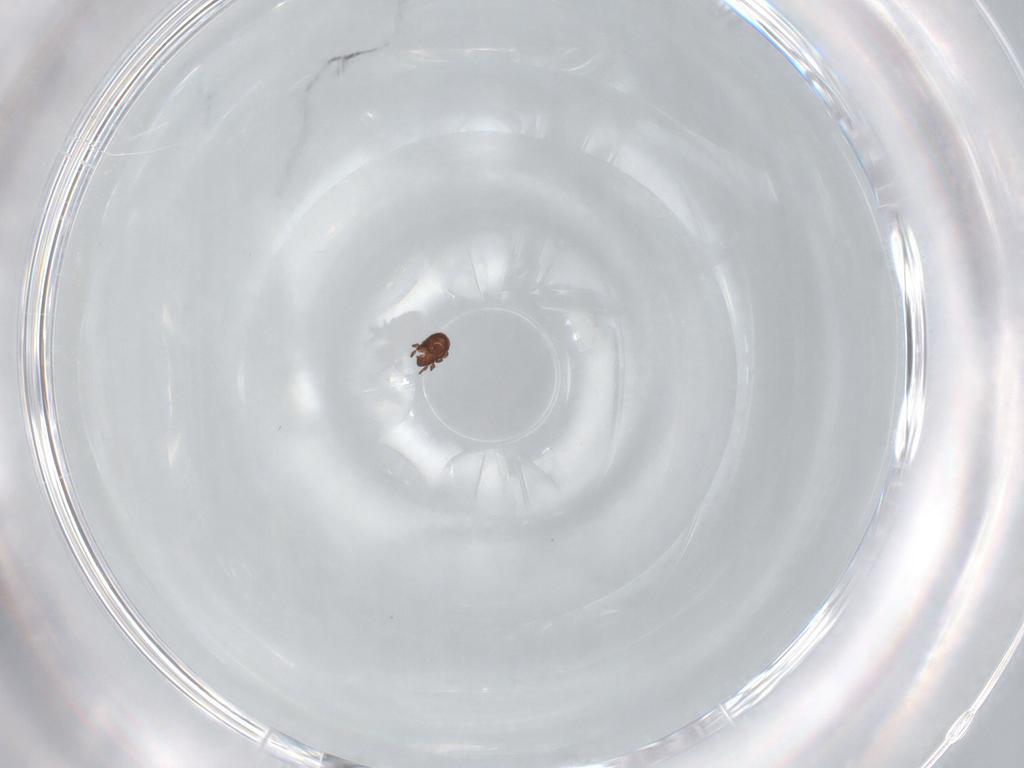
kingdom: Animalia
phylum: Arthropoda
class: Arachnida
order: Sarcoptiformes
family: Cymbaeremaeidae
